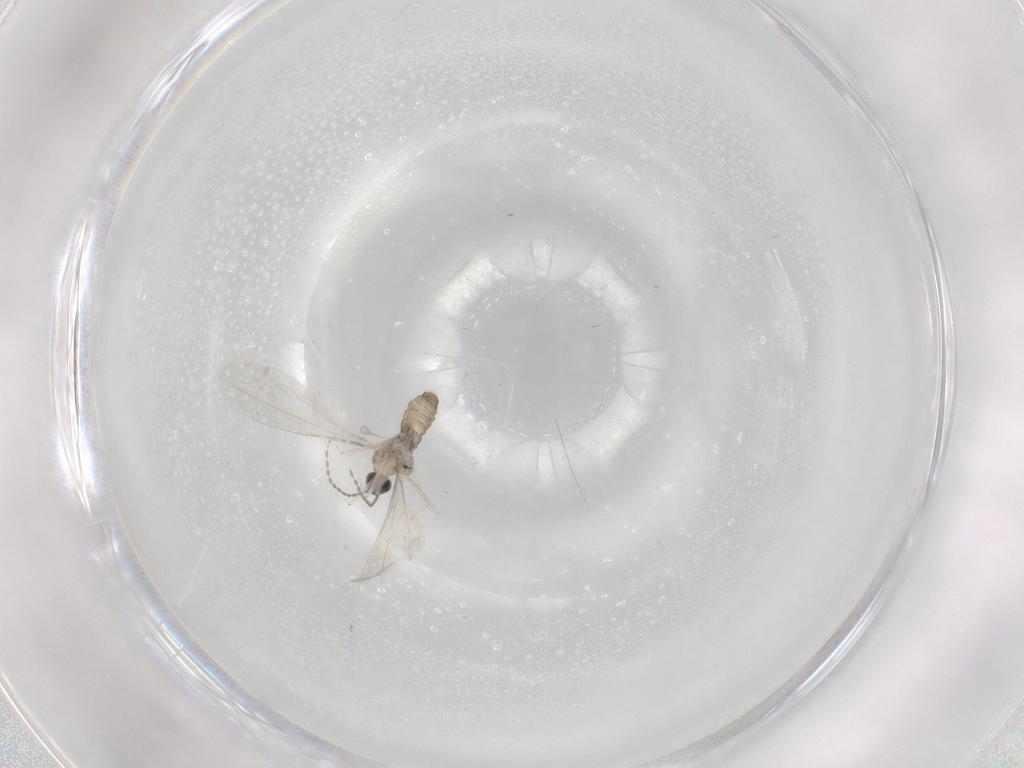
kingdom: Animalia
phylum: Arthropoda
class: Insecta
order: Diptera
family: Cecidomyiidae
